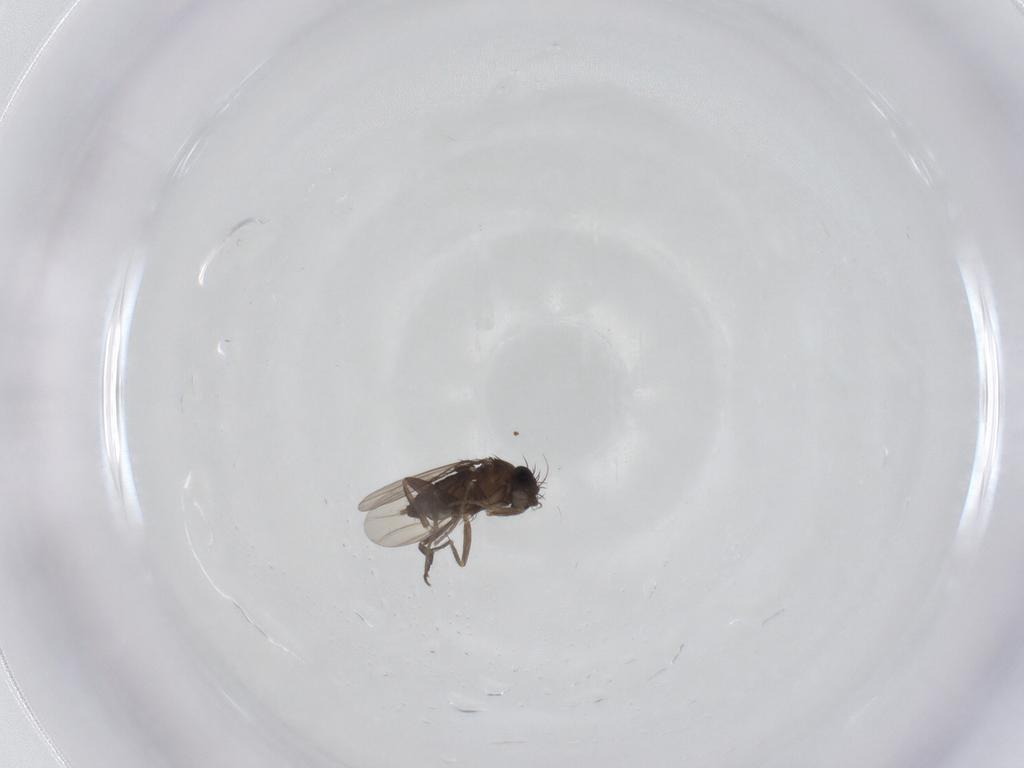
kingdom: Animalia
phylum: Arthropoda
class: Insecta
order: Diptera
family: Phoridae
